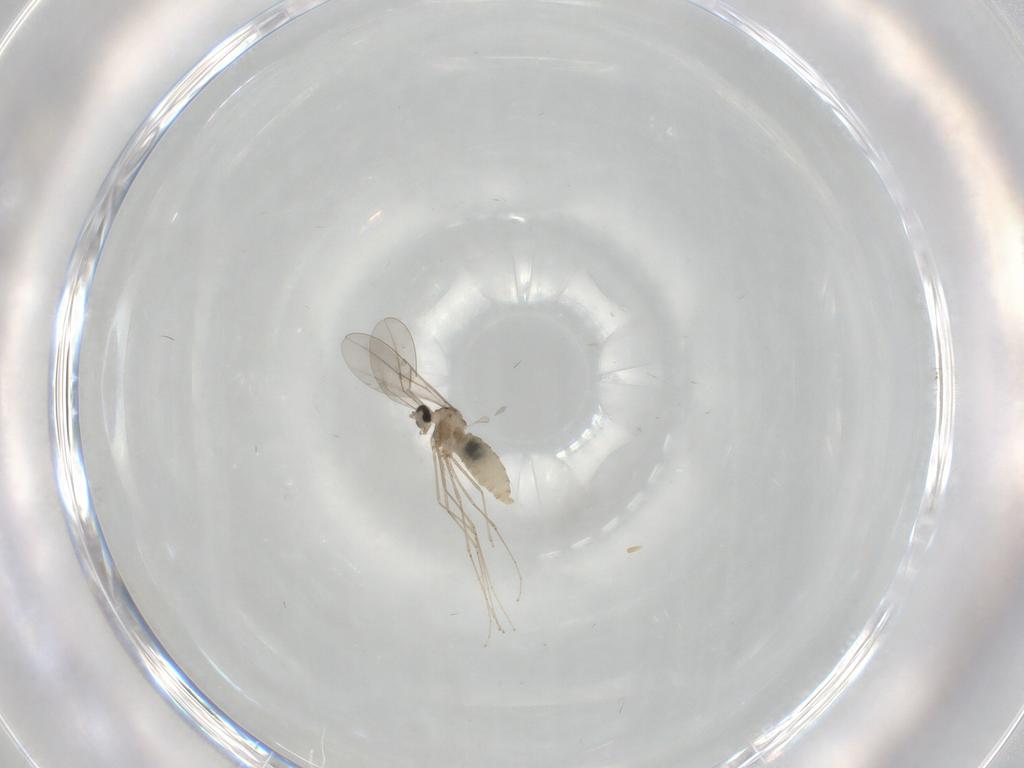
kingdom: Animalia
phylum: Arthropoda
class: Insecta
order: Diptera
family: Cecidomyiidae
